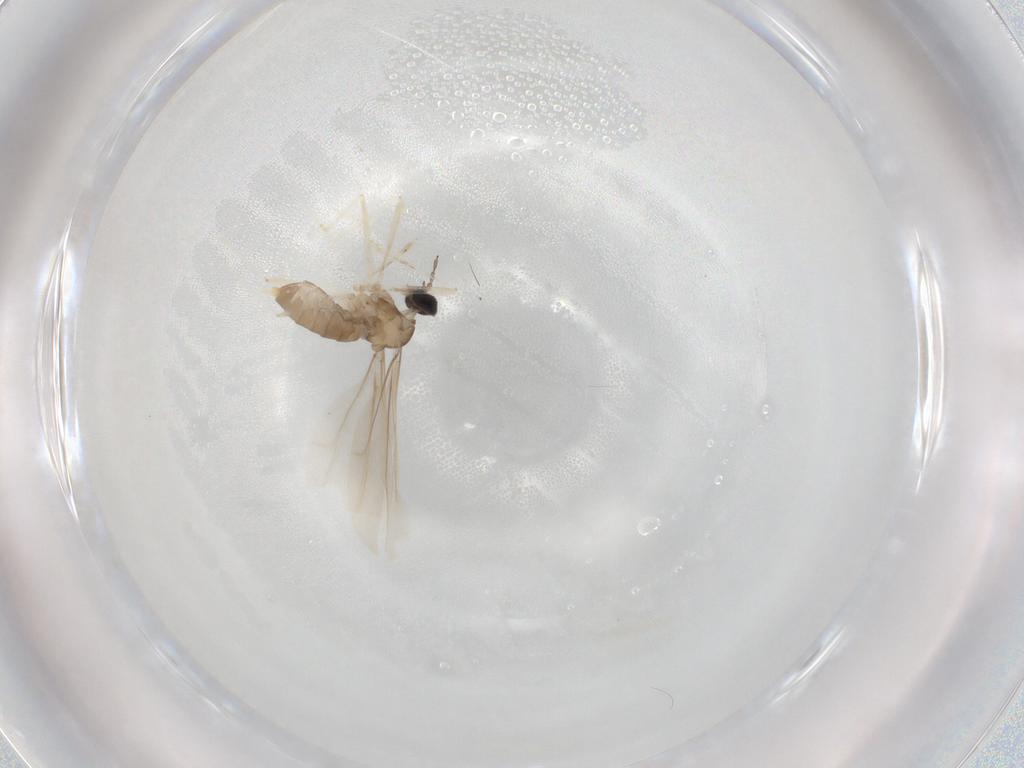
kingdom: Animalia
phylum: Arthropoda
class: Insecta
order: Diptera
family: Cecidomyiidae
